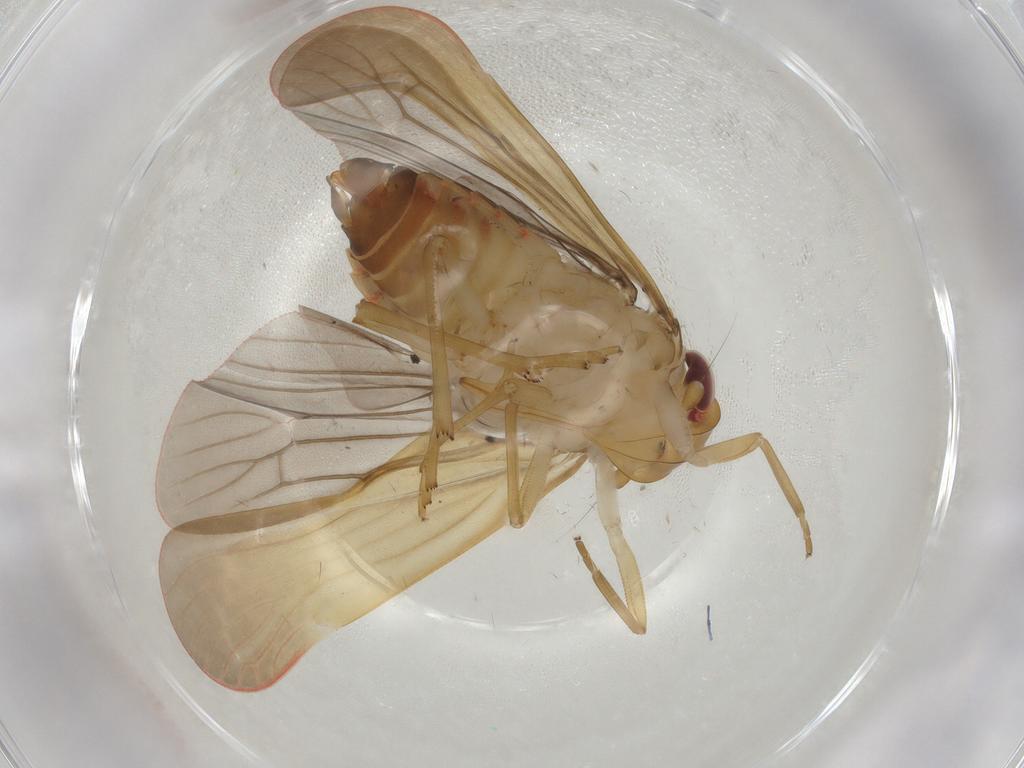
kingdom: Animalia
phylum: Arthropoda
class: Insecta
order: Hemiptera
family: Achilidae
